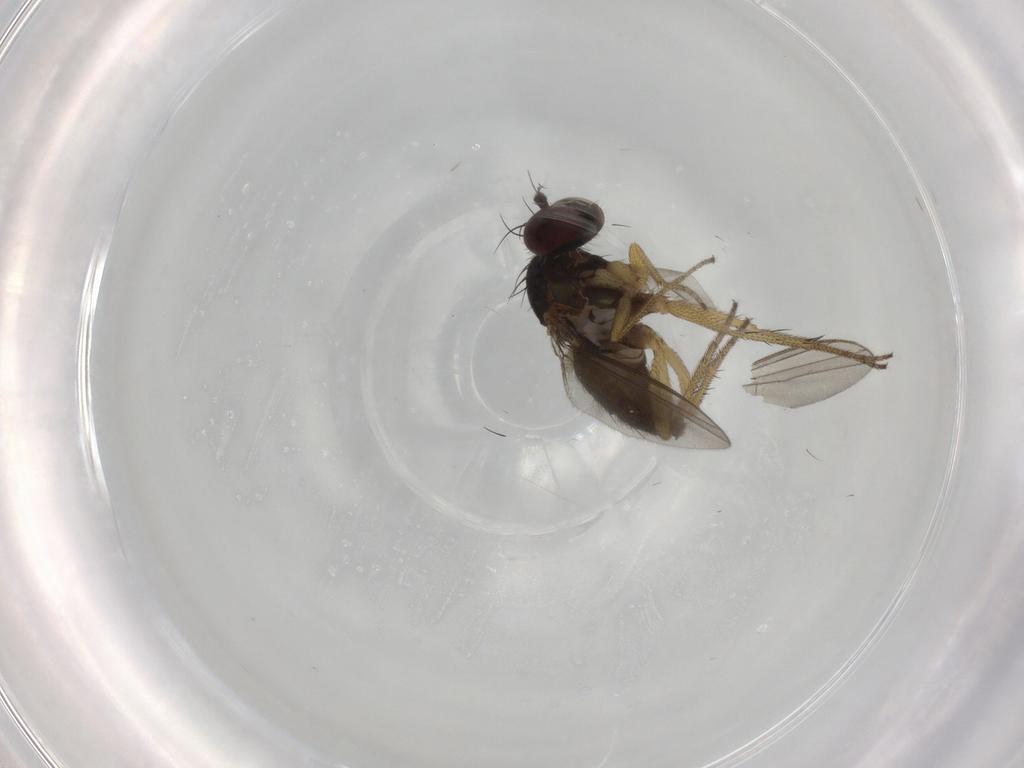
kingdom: Animalia
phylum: Arthropoda
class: Insecta
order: Diptera
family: Dolichopodidae
